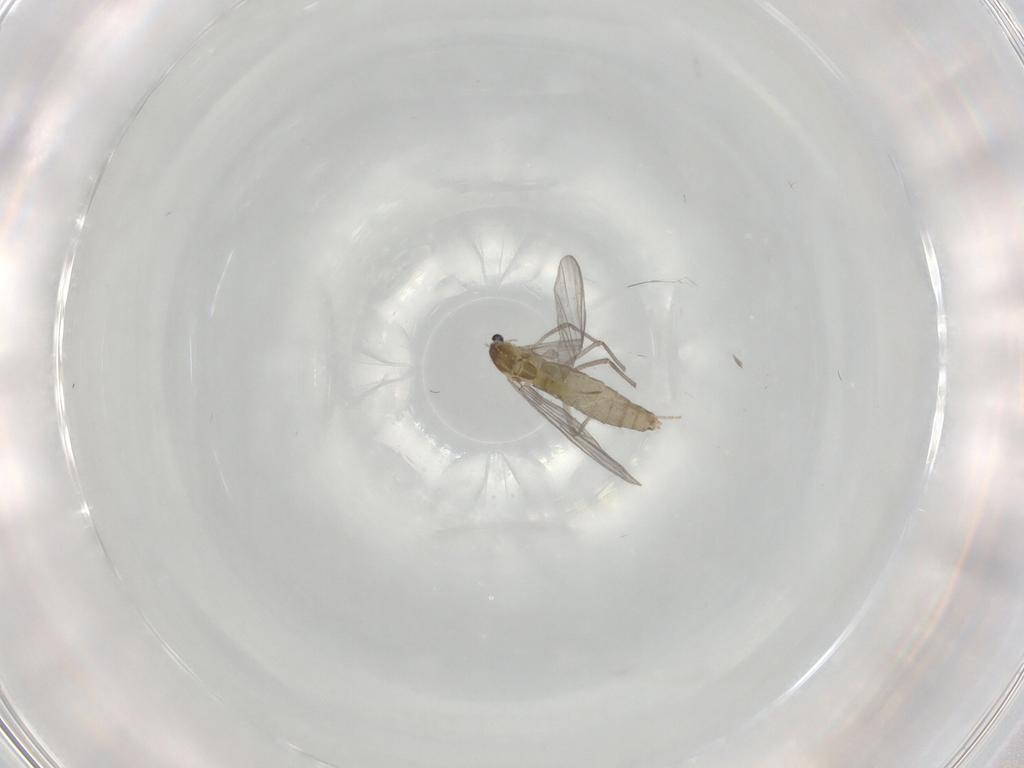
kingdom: Animalia
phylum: Arthropoda
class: Insecta
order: Diptera
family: Chironomidae
